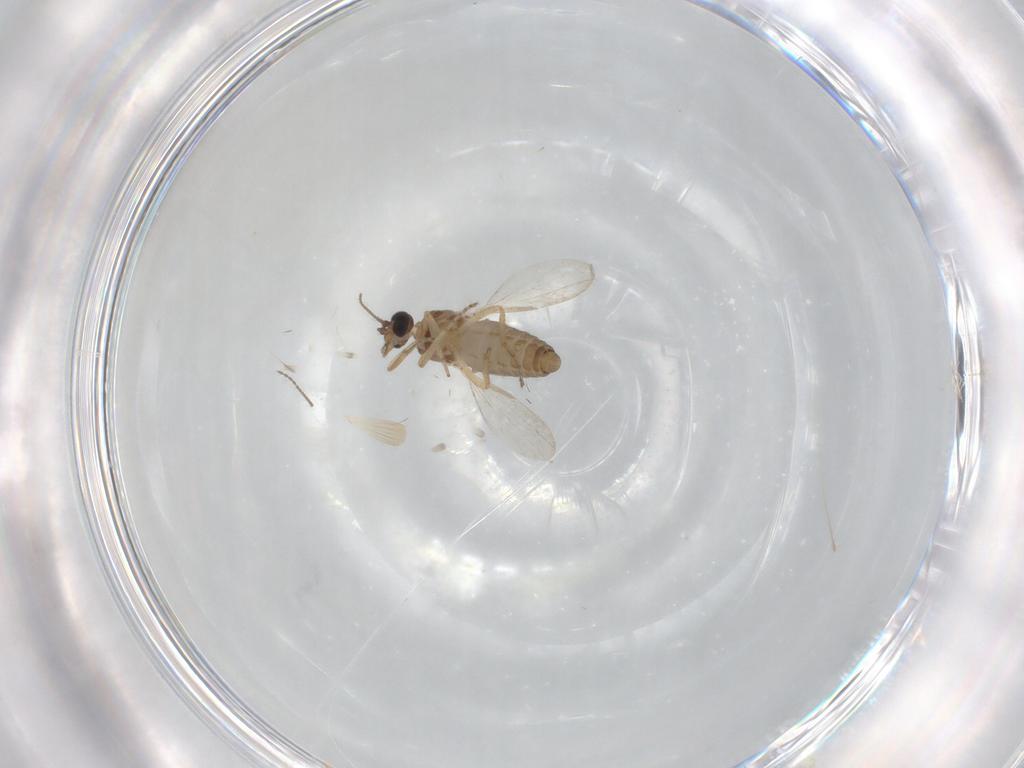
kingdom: Animalia
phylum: Arthropoda
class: Insecta
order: Diptera
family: Ceratopogonidae
